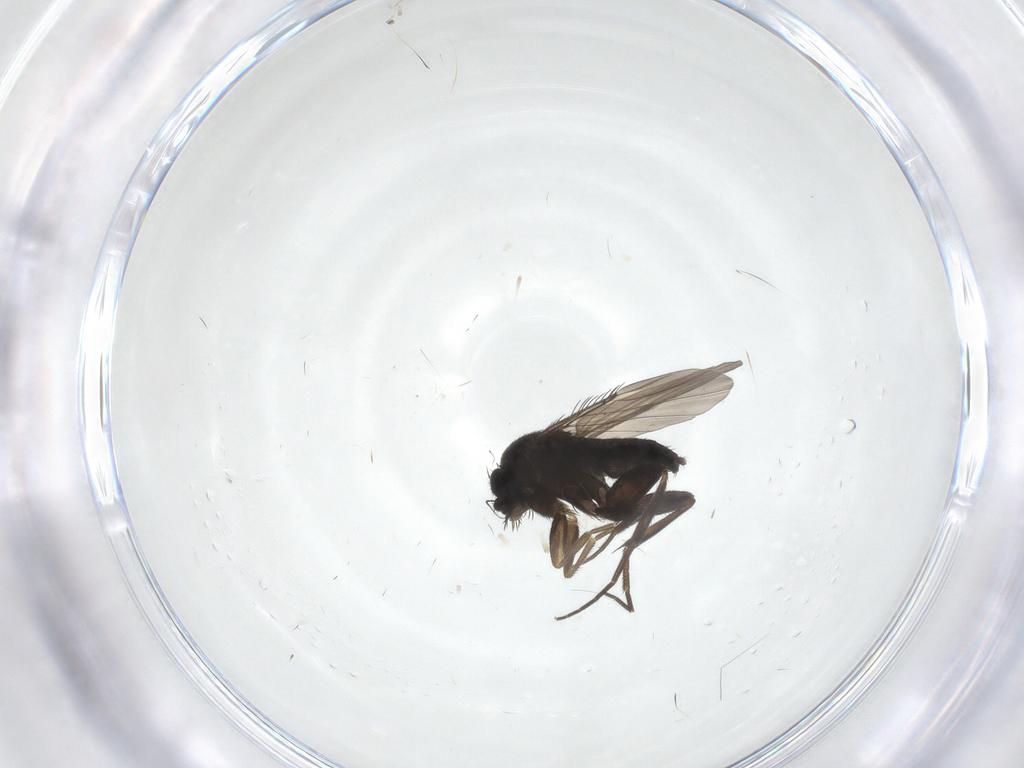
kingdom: Animalia
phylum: Arthropoda
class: Insecta
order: Diptera
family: Phoridae
